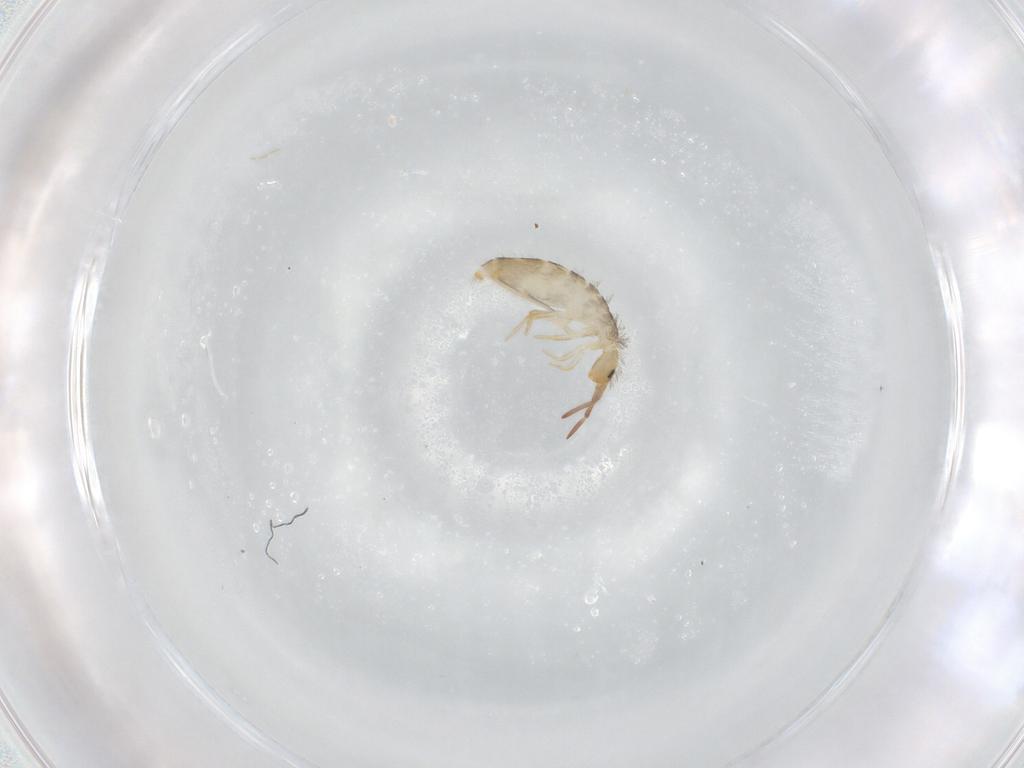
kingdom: Animalia
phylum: Arthropoda
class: Collembola
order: Entomobryomorpha
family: Entomobryidae
